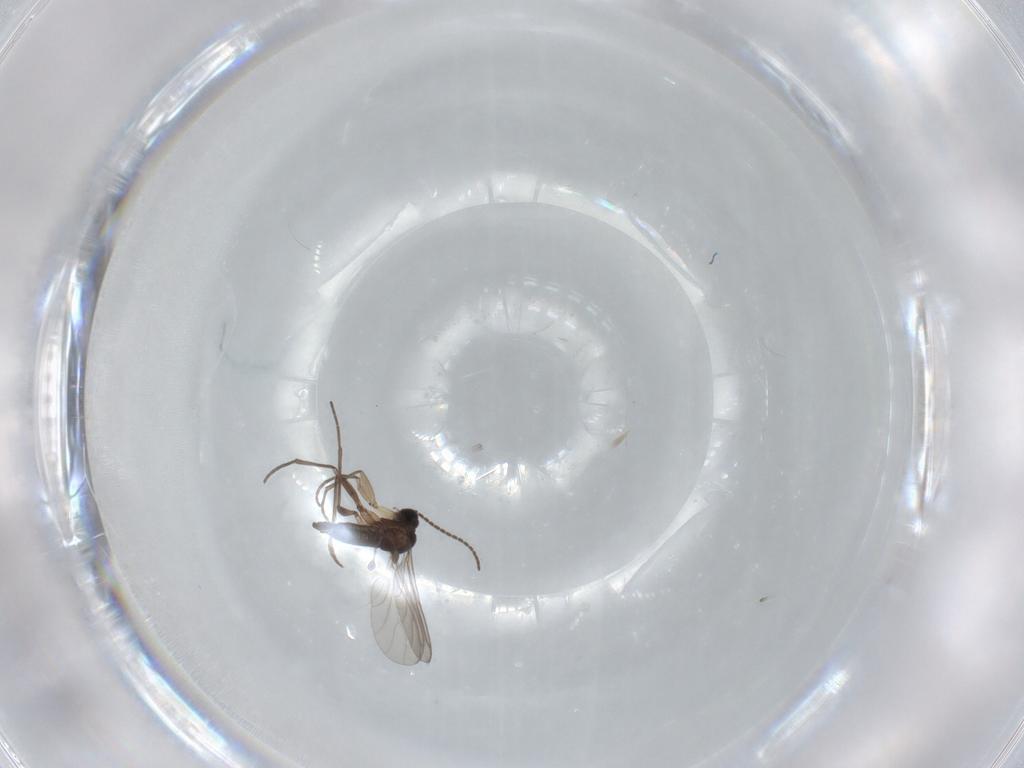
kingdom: Animalia
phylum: Arthropoda
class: Insecta
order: Diptera
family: Sciaridae
